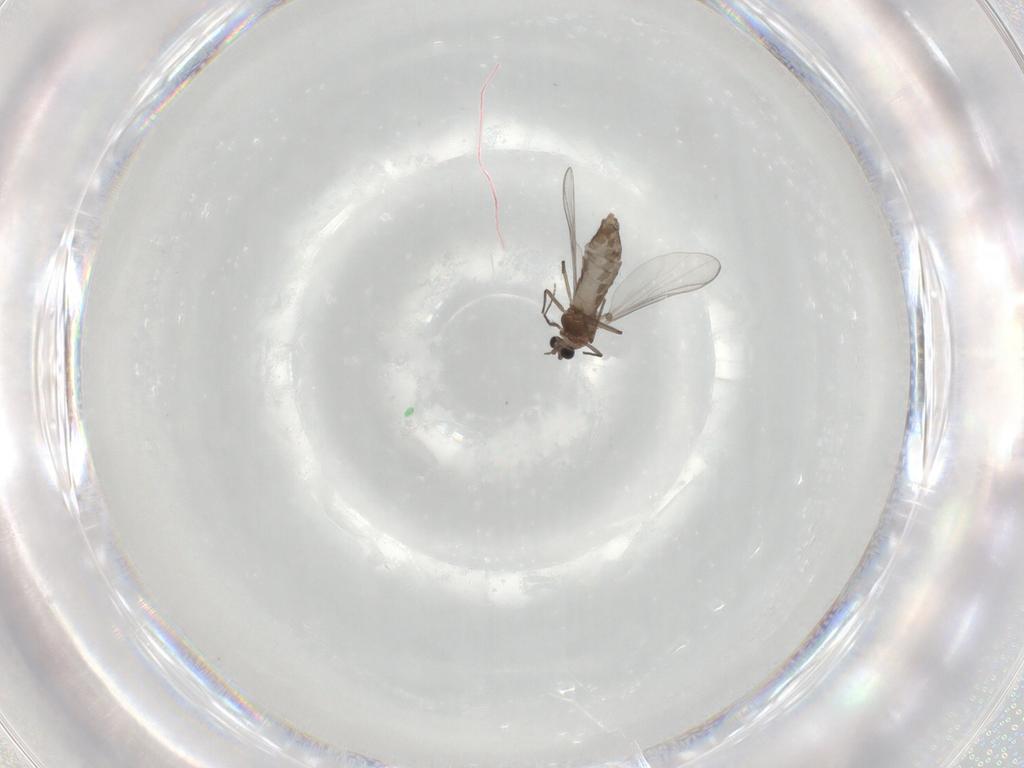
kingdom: Animalia
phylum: Arthropoda
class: Insecta
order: Diptera
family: Chironomidae
